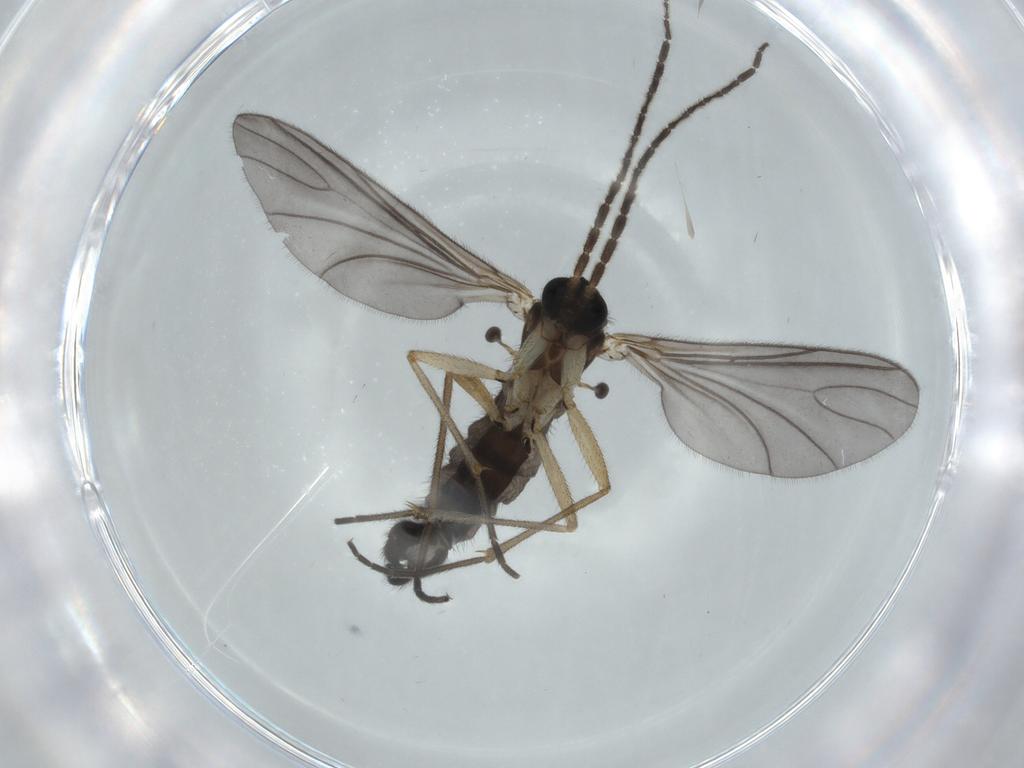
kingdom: Animalia
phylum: Arthropoda
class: Insecta
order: Diptera
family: Sciaridae
